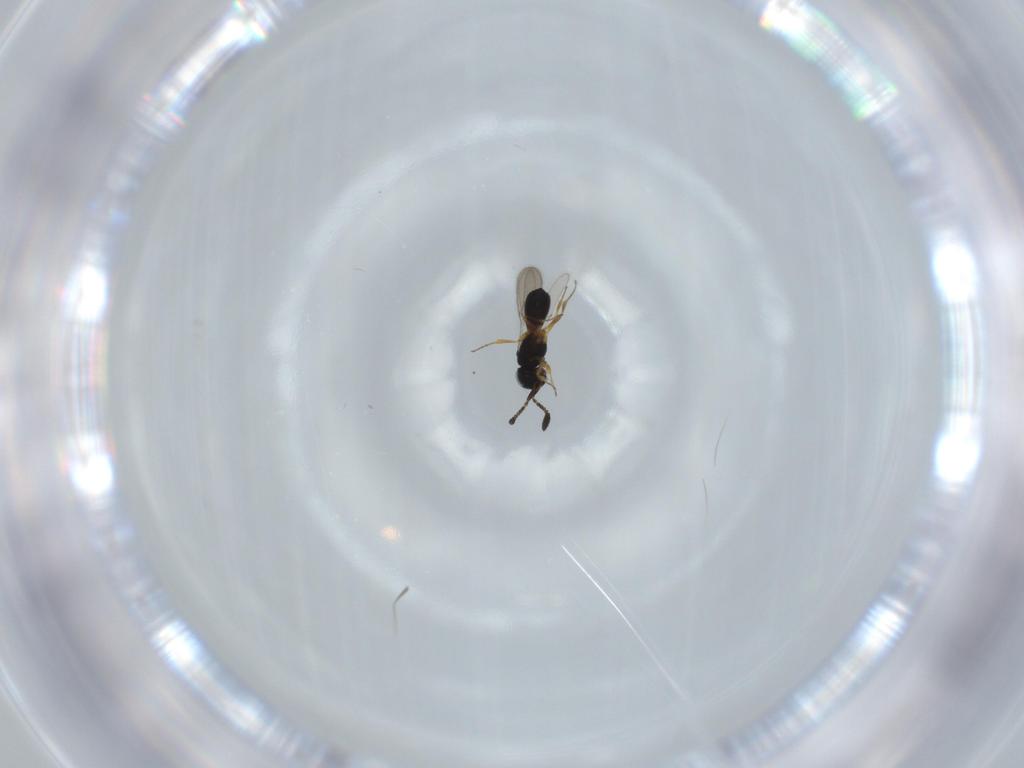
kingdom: Animalia
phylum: Arthropoda
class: Insecta
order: Hymenoptera
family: Scelionidae
